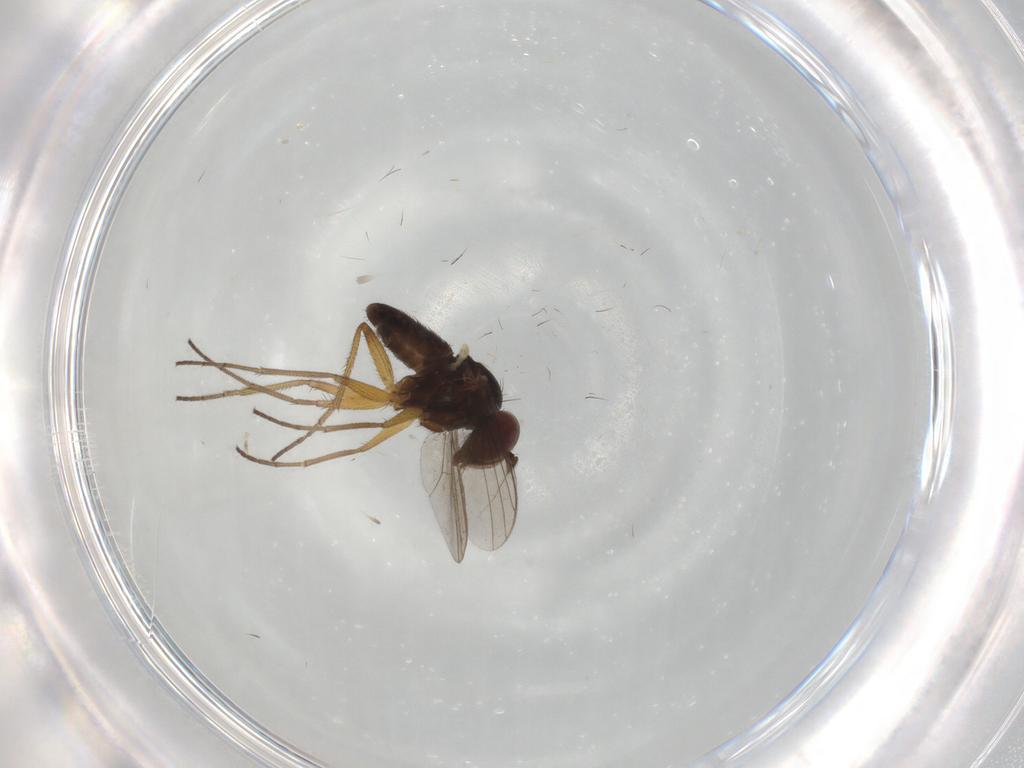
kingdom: Animalia
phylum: Arthropoda
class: Insecta
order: Diptera
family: Dolichopodidae
